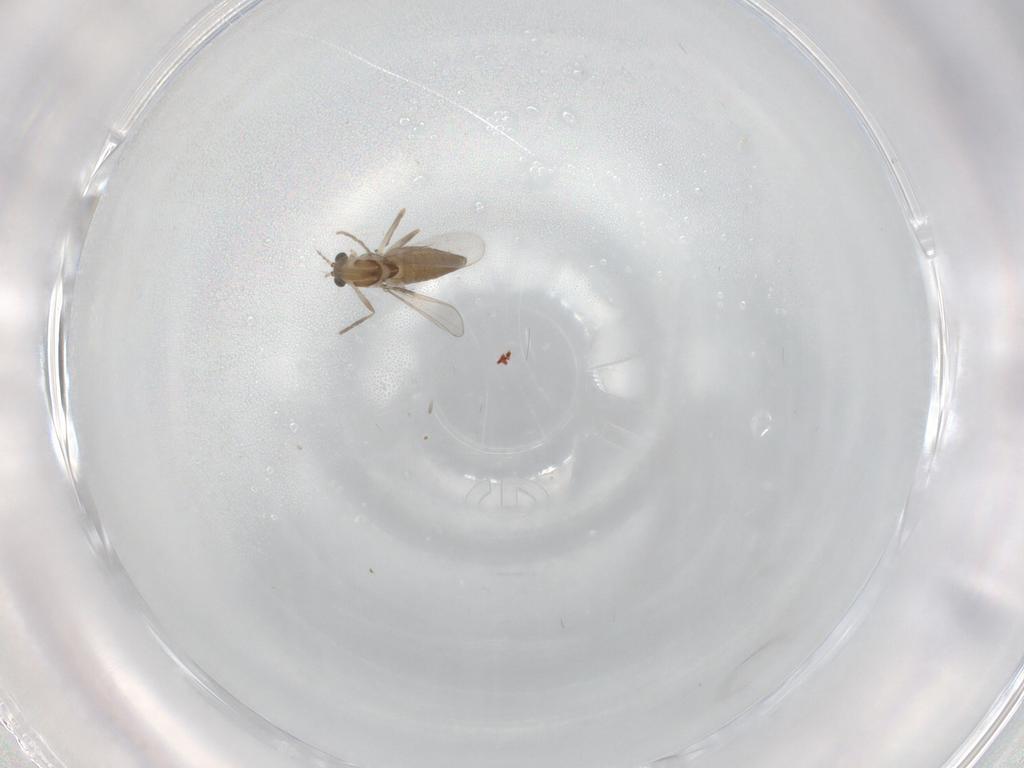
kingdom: Animalia
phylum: Arthropoda
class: Insecta
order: Diptera
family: Chironomidae
